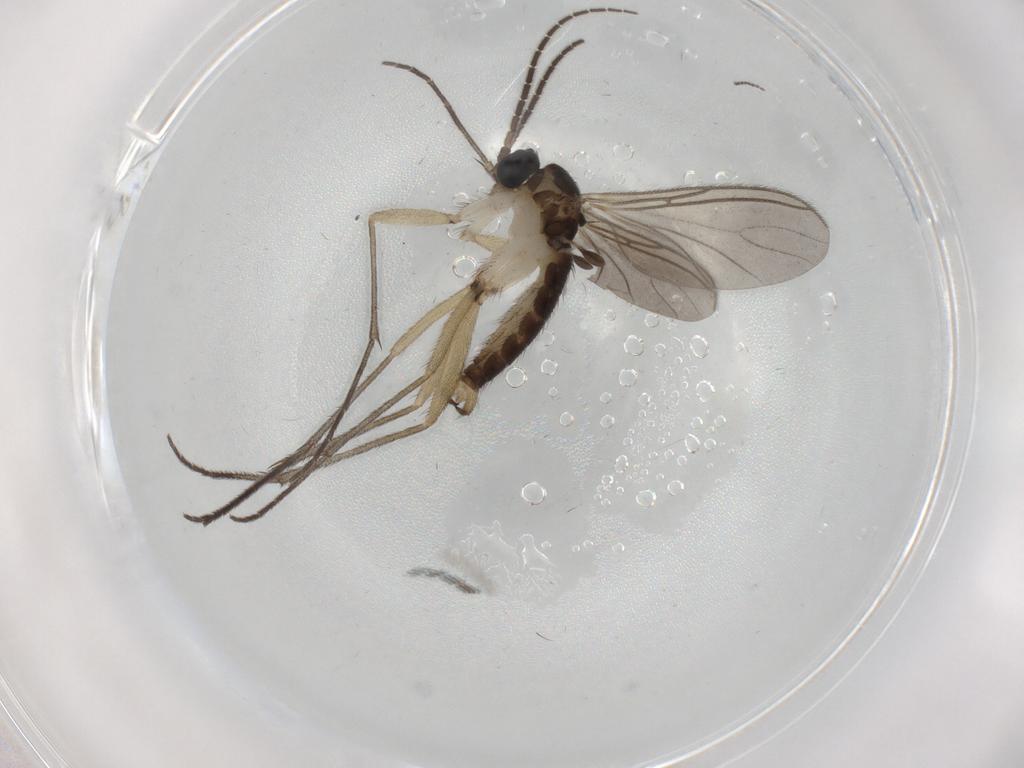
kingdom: Animalia
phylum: Arthropoda
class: Insecta
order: Diptera
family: Sciaridae
